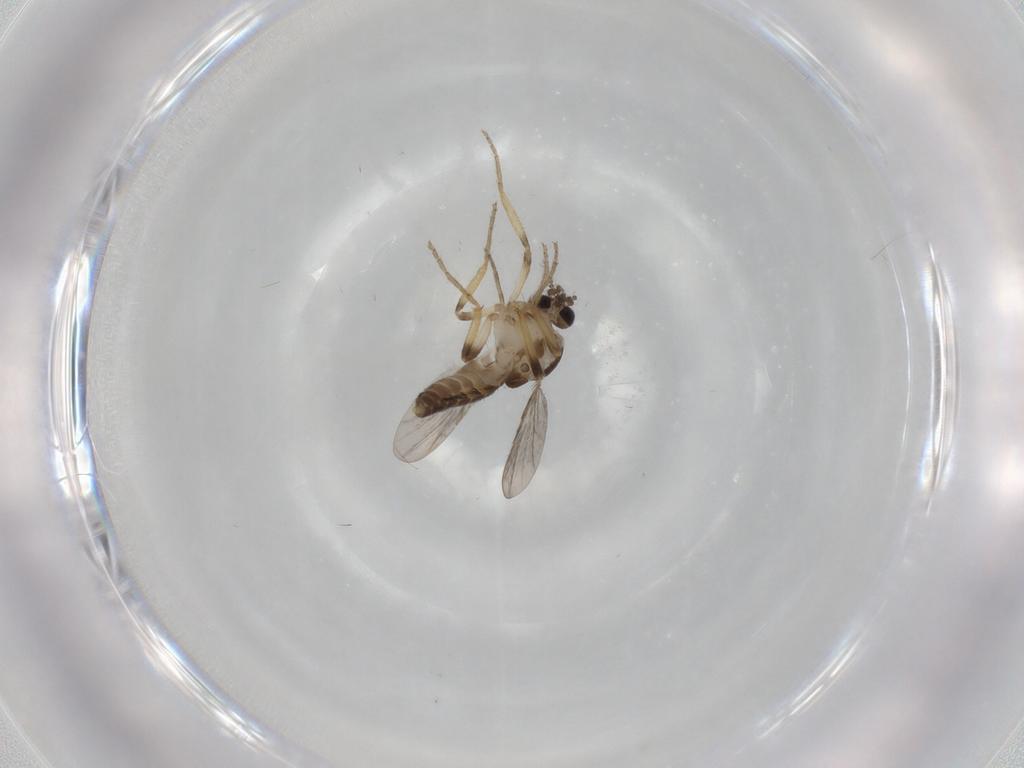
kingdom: Animalia
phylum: Arthropoda
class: Insecta
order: Diptera
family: Ceratopogonidae
